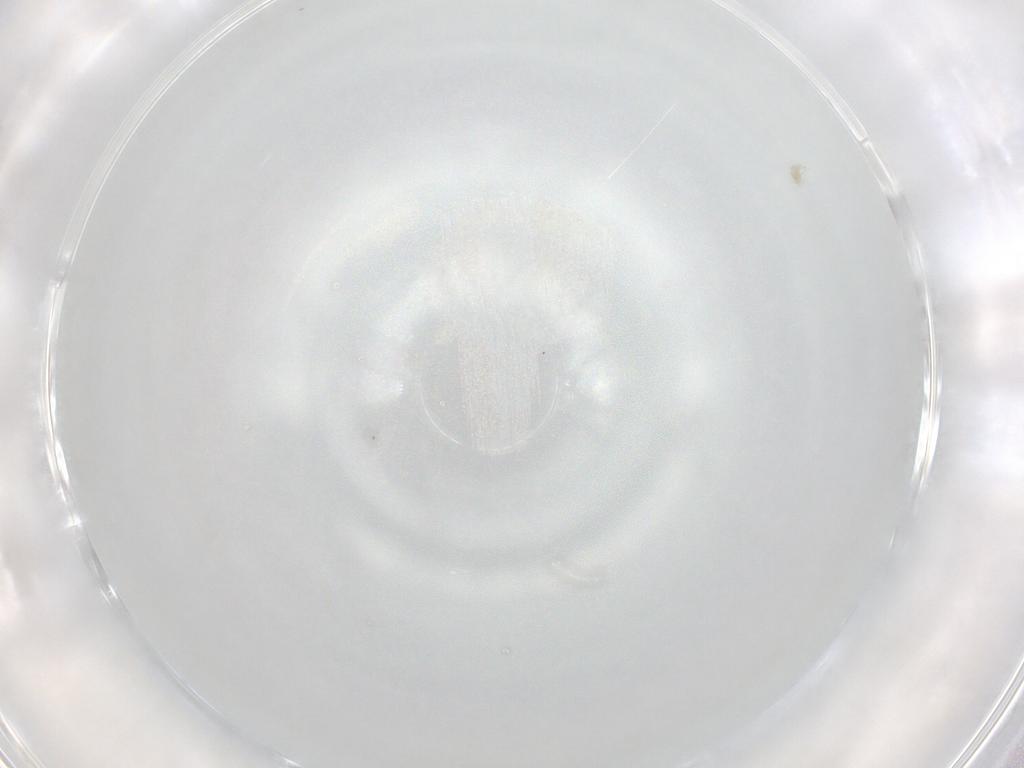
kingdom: Animalia
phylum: Arthropoda
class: Arachnida
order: Trombidiformes
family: Eupodidae
